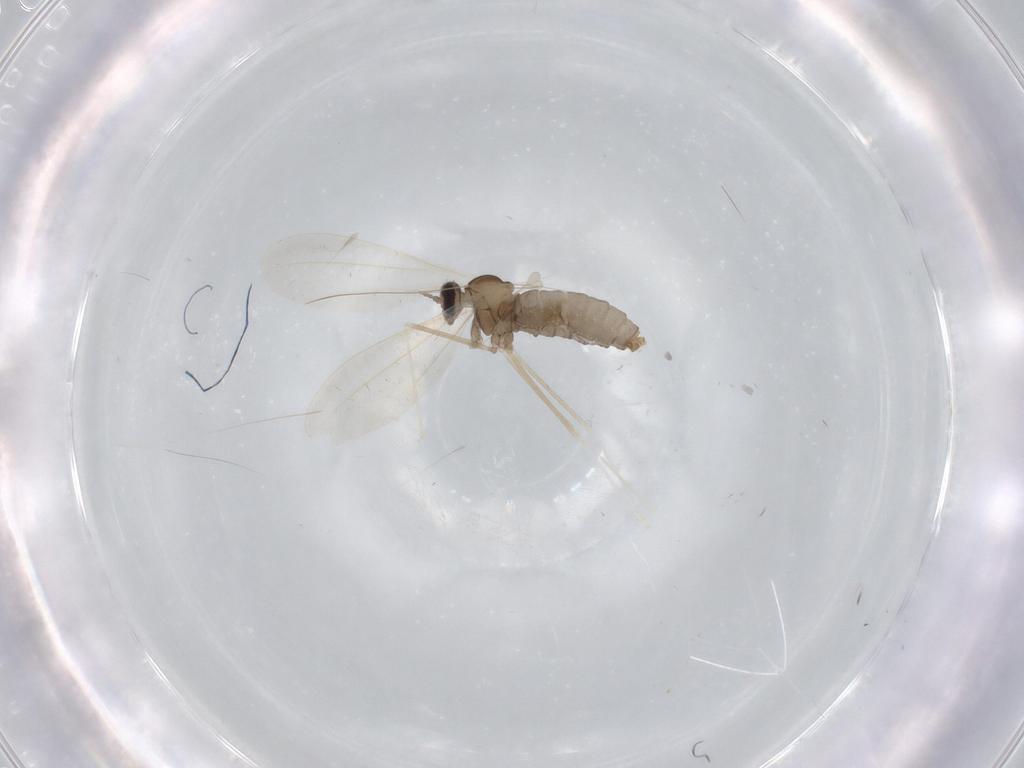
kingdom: Animalia
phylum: Arthropoda
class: Insecta
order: Diptera
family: Cecidomyiidae
